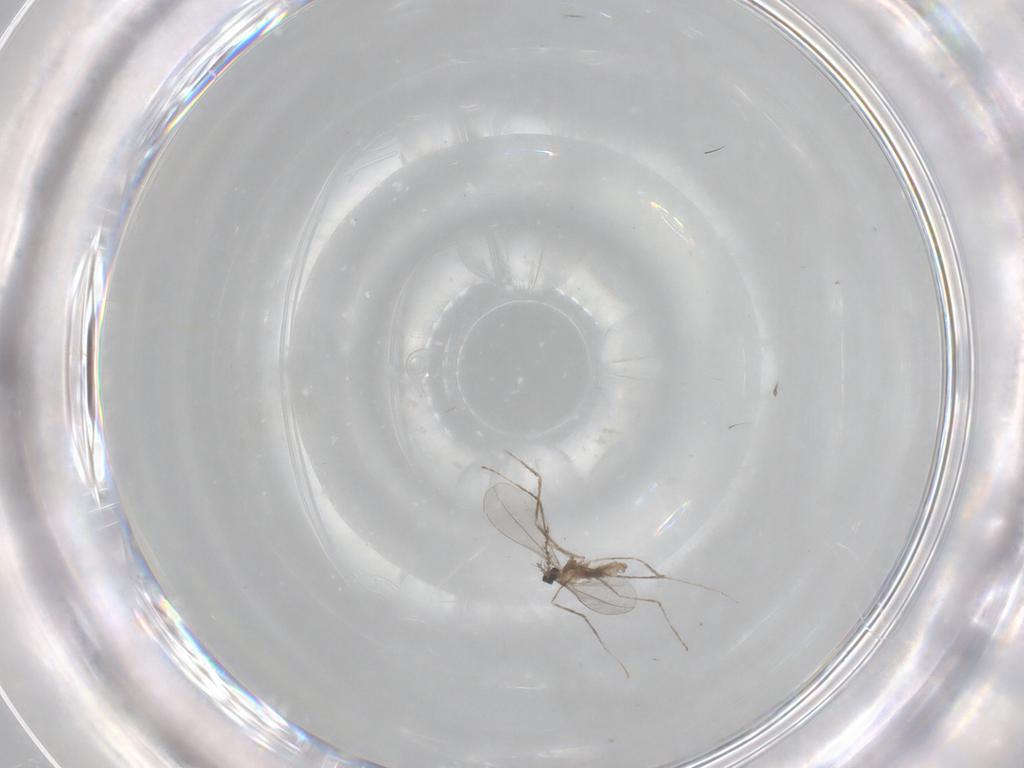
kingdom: Animalia
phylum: Arthropoda
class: Insecta
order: Diptera
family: Cecidomyiidae
